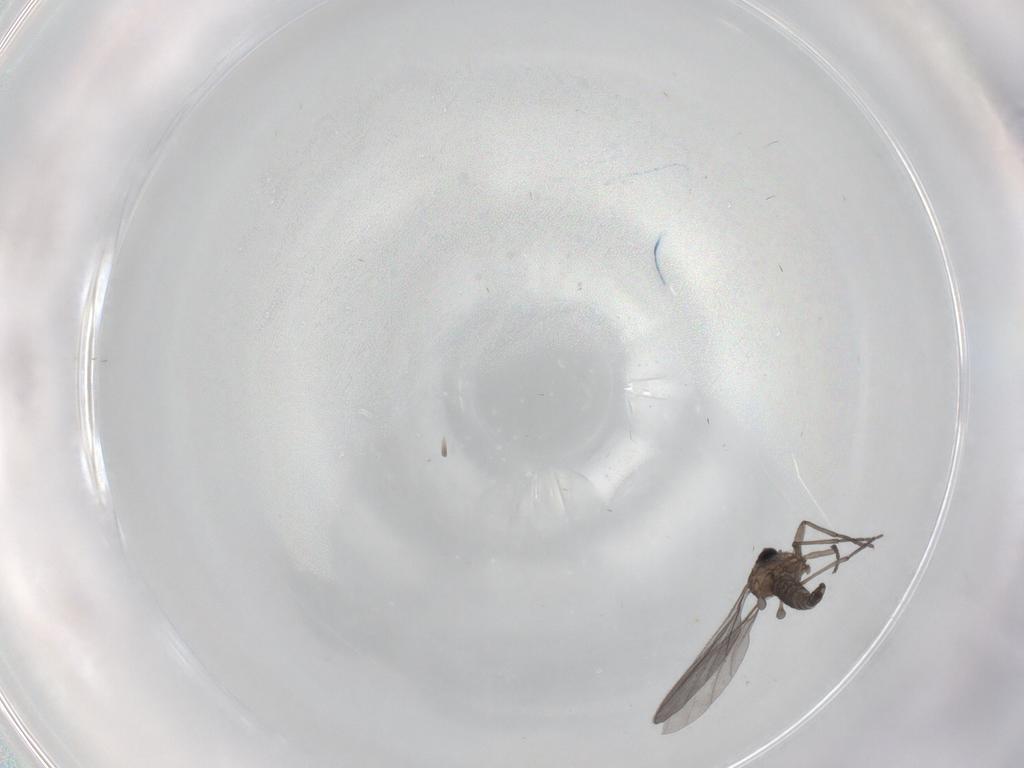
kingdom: Animalia
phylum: Arthropoda
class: Insecta
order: Diptera
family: Sciaridae
